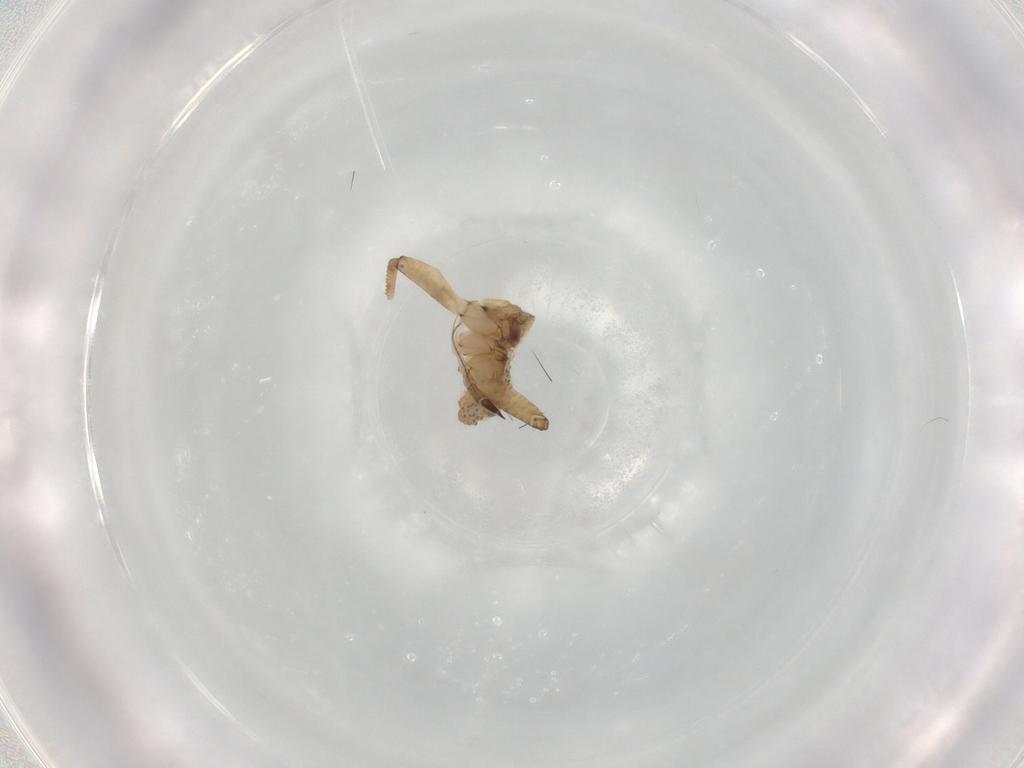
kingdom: Animalia
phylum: Arthropoda
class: Insecta
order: Hemiptera
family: Aphididae
